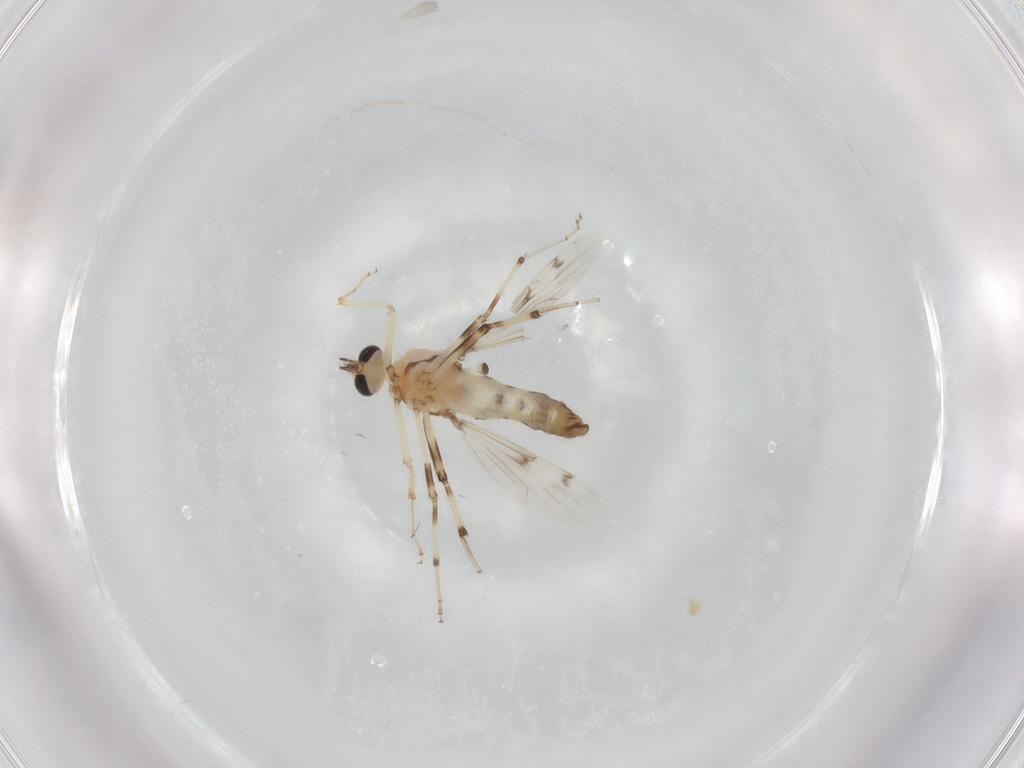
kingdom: Animalia
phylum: Arthropoda
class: Insecta
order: Diptera
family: Ceratopogonidae
